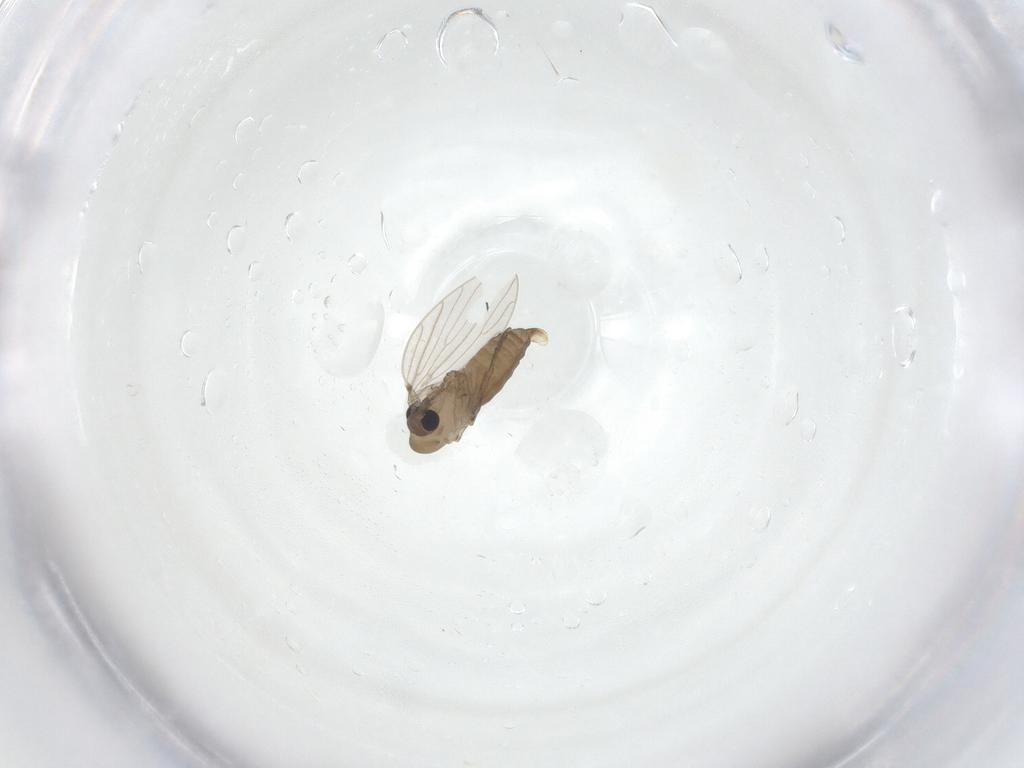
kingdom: Animalia
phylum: Arthropoda
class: Insecta
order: Diptera
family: Psychodidae
